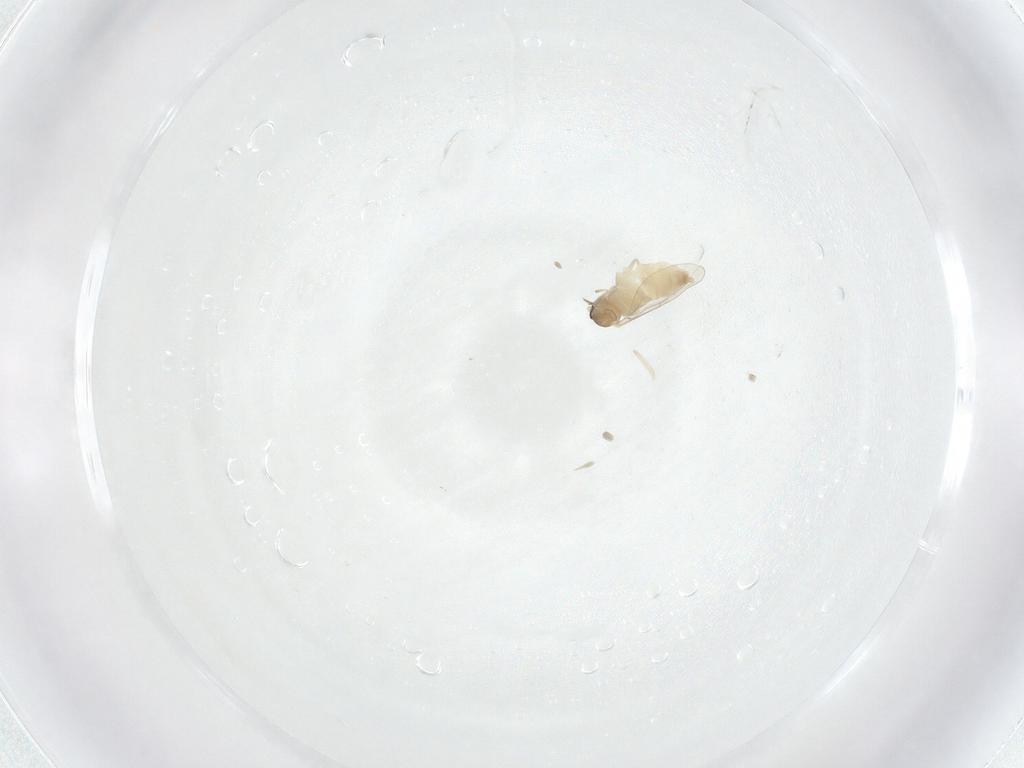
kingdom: Animalia
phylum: Arthropoda
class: Insecta
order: Diptera
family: Cecidomyiidae
